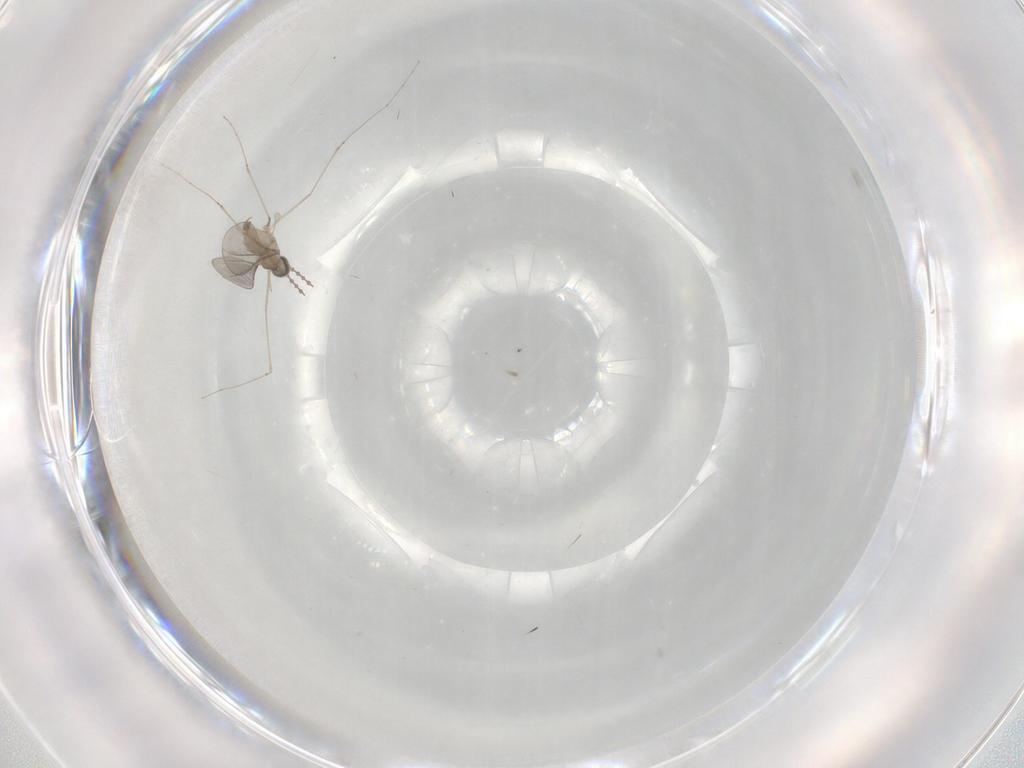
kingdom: Animalia
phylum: Arthropoda
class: Insecta
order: Diptera
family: Cecidomyiidae
